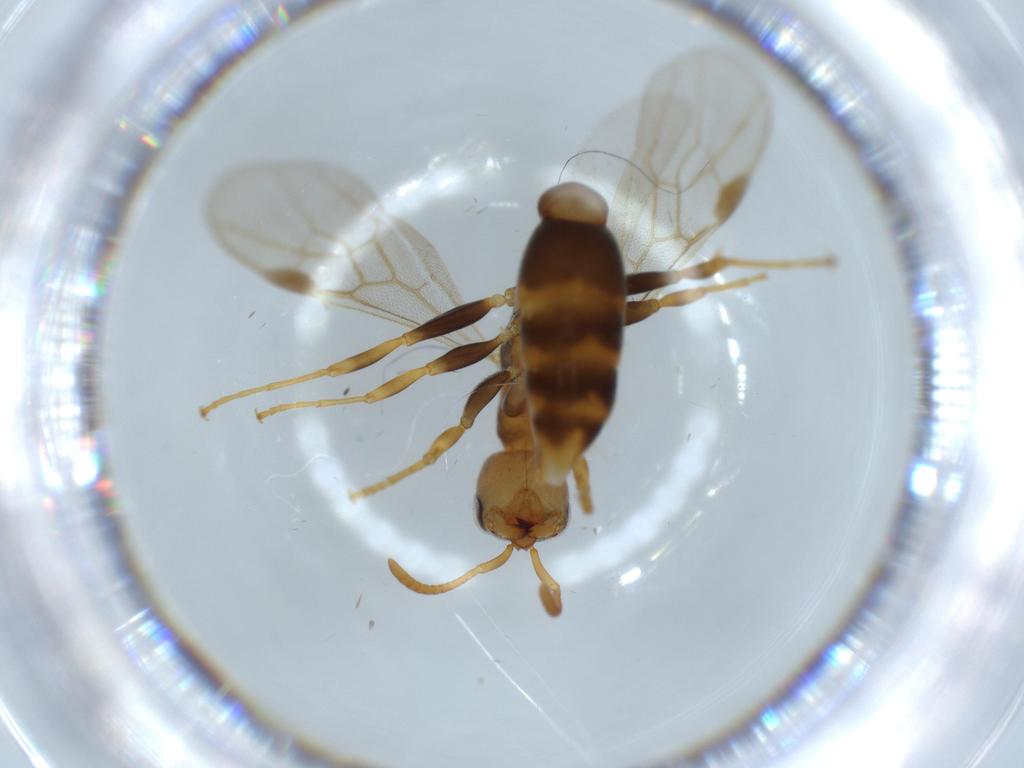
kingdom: Animalia
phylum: Arthropoda
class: Insecta
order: Hymenoptera
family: Formicidae
